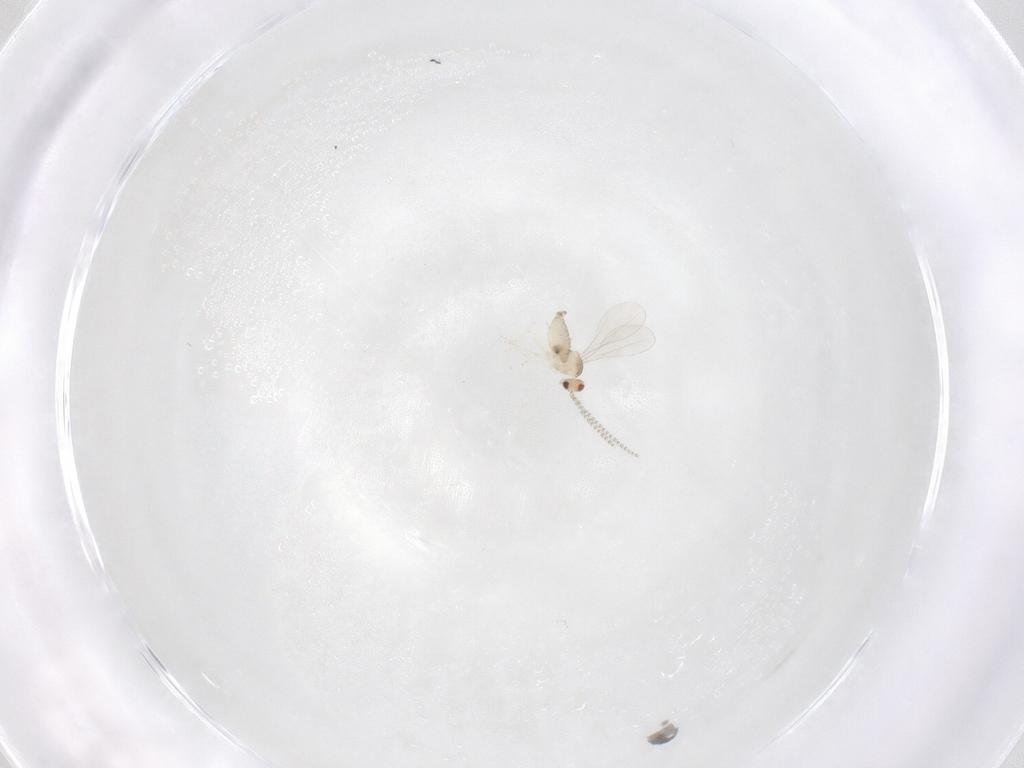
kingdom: Animalia
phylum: Arthropoda
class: Insecta
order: Diptera
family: Cecidomyiidae
